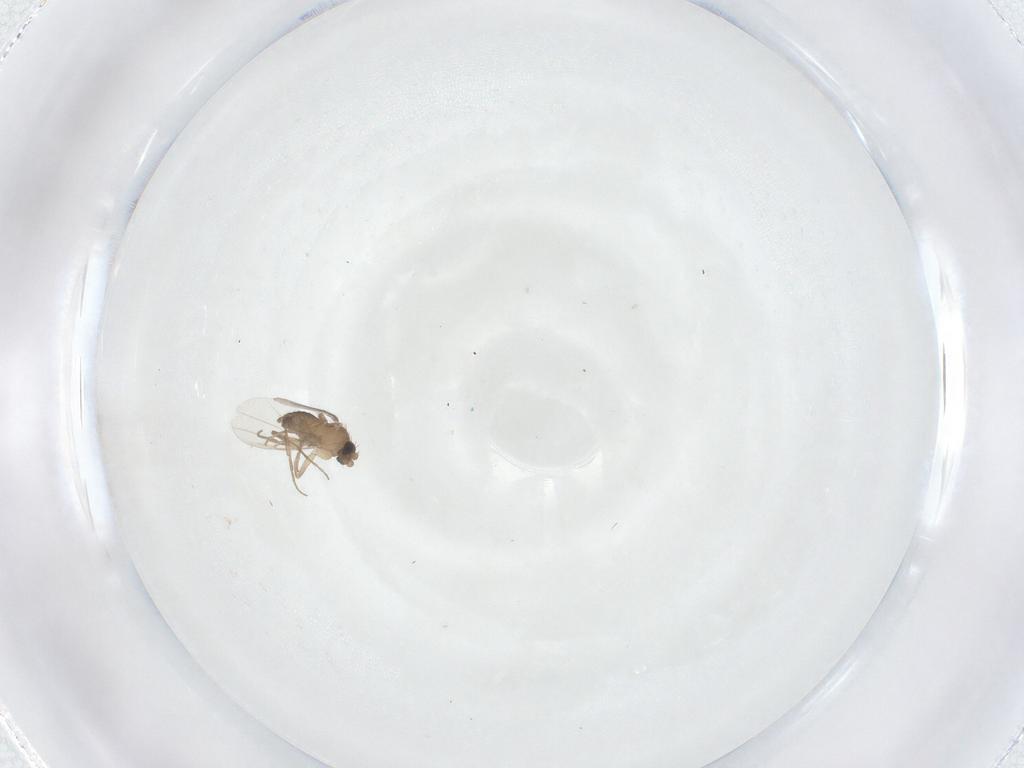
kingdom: Animalia
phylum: Arthropoda
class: Insecta
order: Diptera
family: Phoridae
